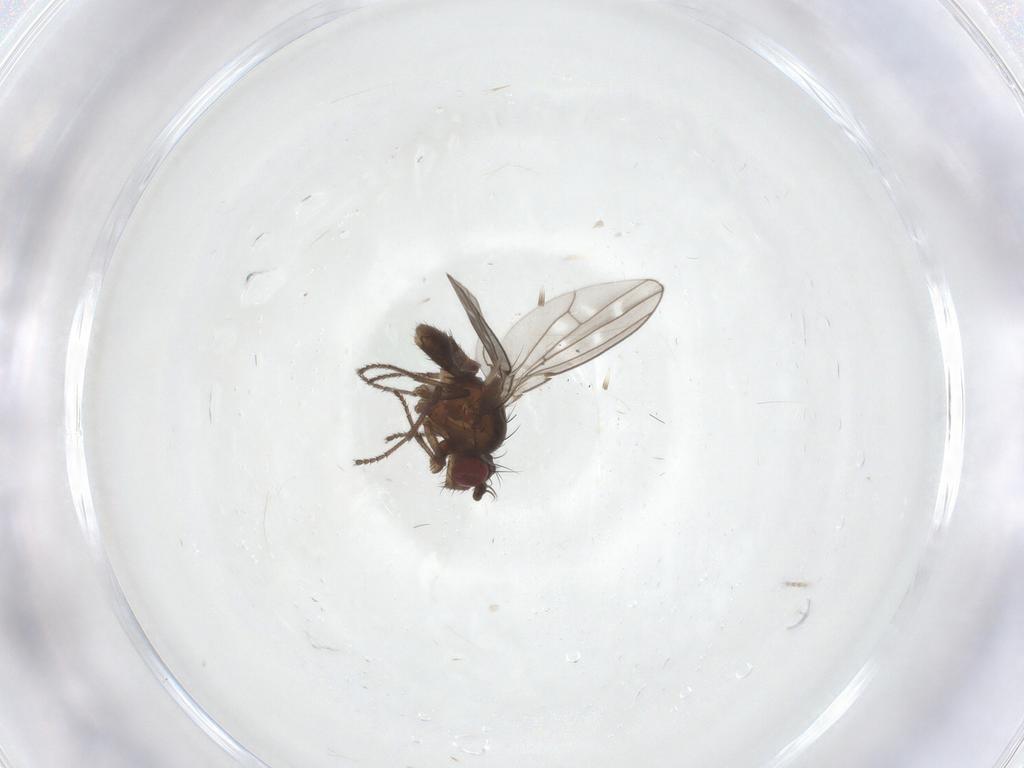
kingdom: Animalia
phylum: Arthropoda
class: Insecta
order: Diptera
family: Ephydridae
